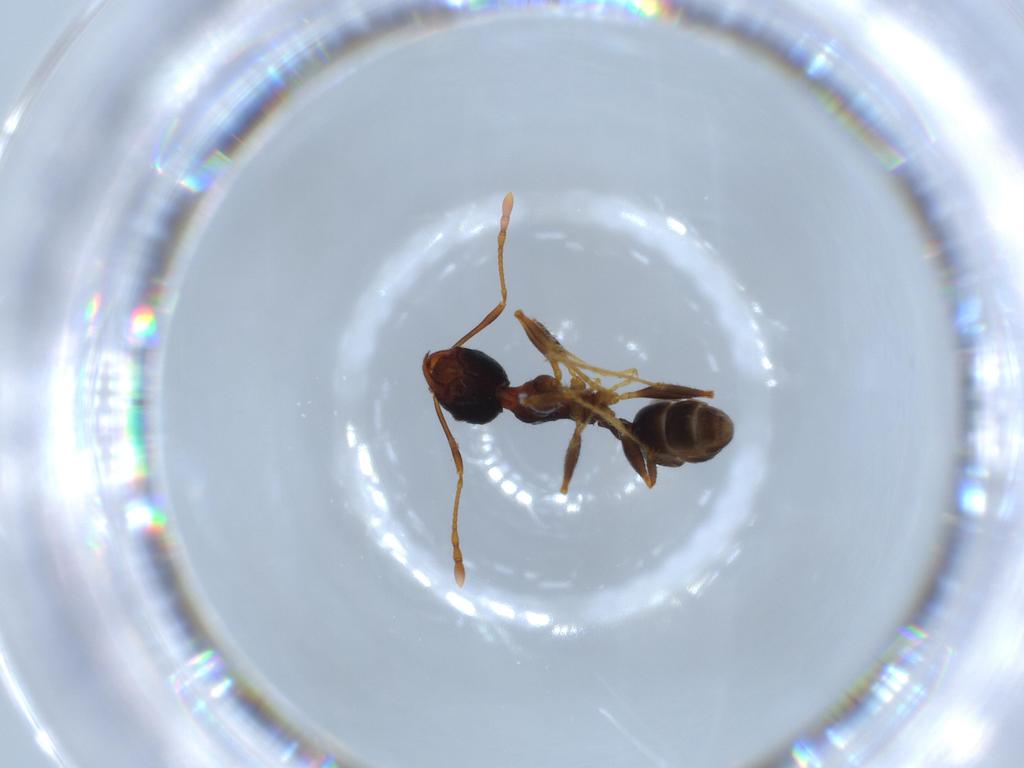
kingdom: Animalia
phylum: Arthropoda
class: Insecta
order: Hymenoptera
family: Formicidae
